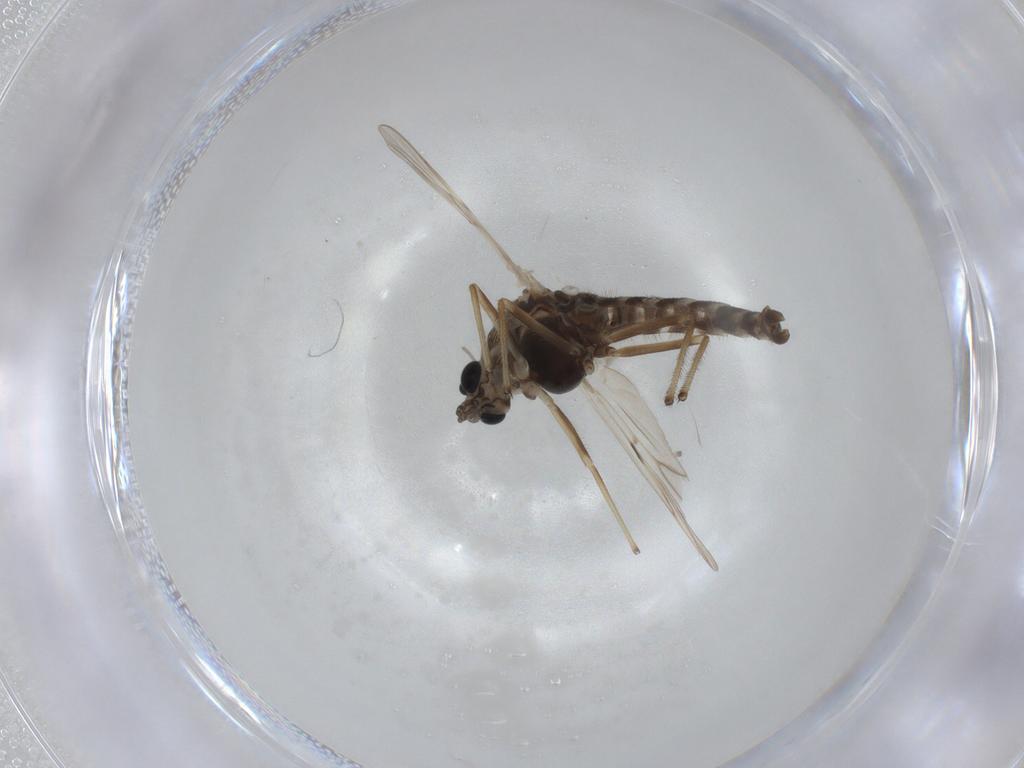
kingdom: Animalia
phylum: Arthropoda
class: Insecta
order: Diptera
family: Chironomidae
